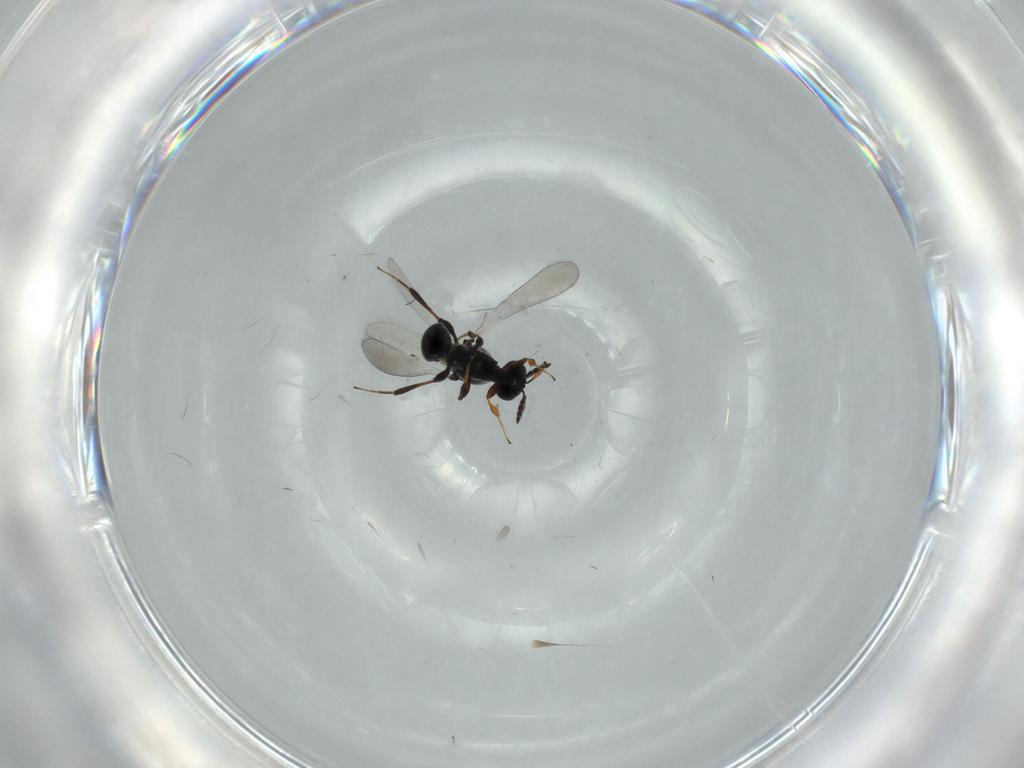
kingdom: Animalia
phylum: Arthropoda
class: Insecta
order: Hymenoptera
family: Platygastridae
